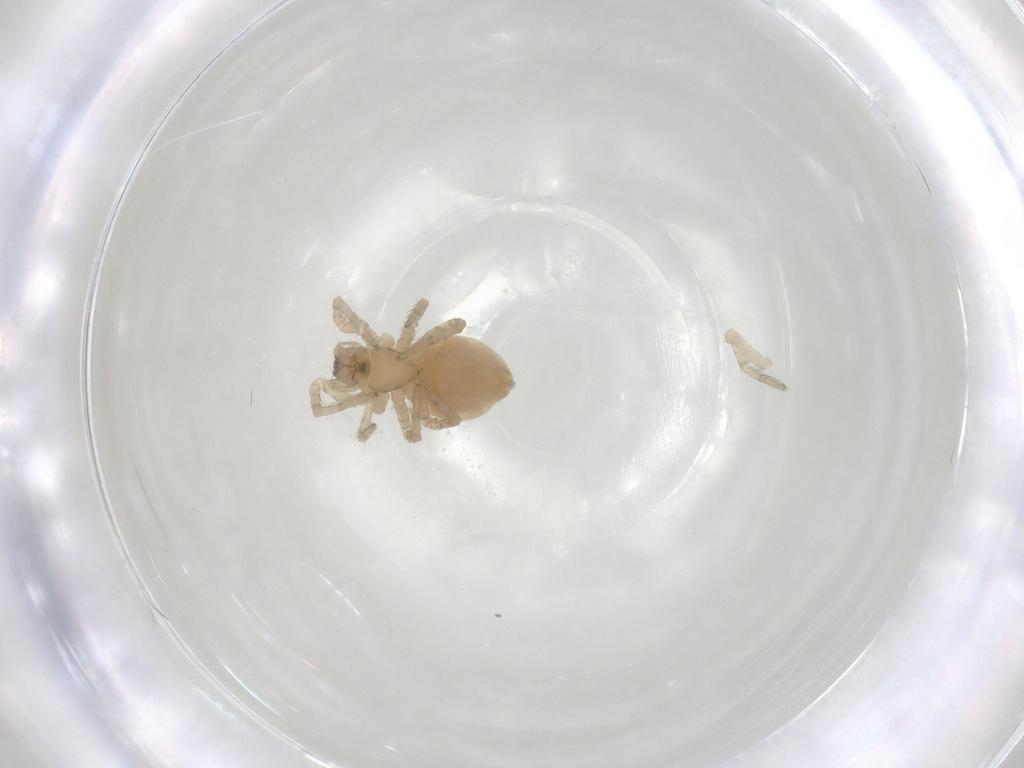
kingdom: Animalia
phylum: Arthropoda
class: Arachnida
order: Araneae
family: Amaurobiidae
